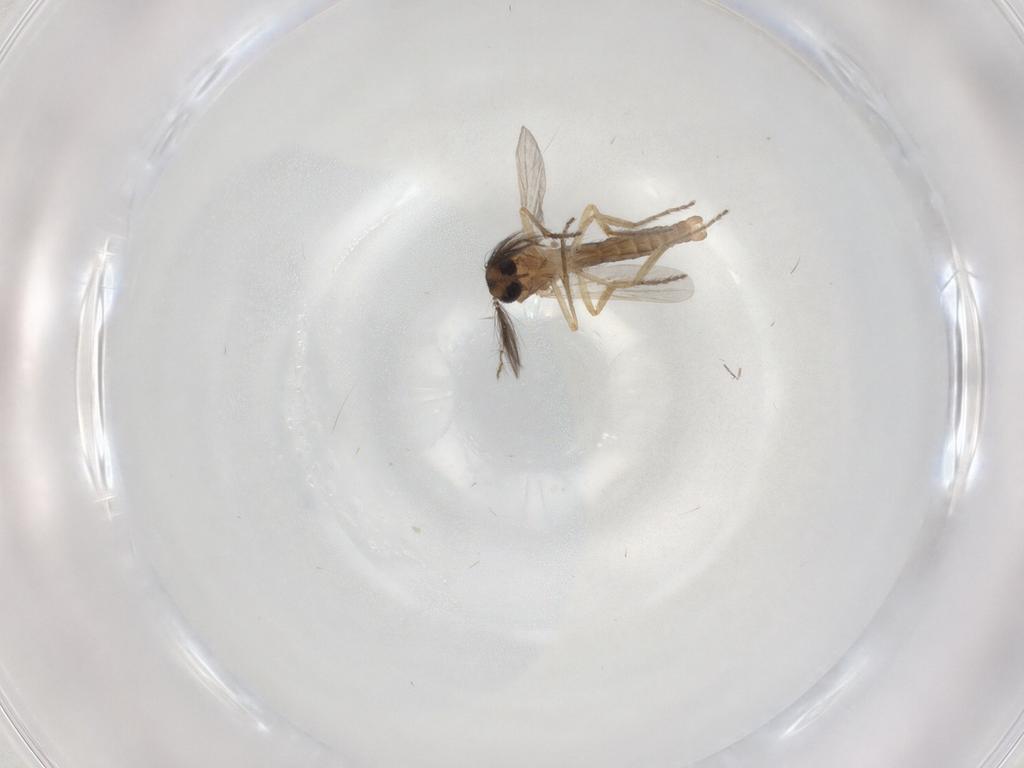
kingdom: Animalia
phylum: Arthropoda
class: Insecta
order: Diptera
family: Ceratopogonidae
